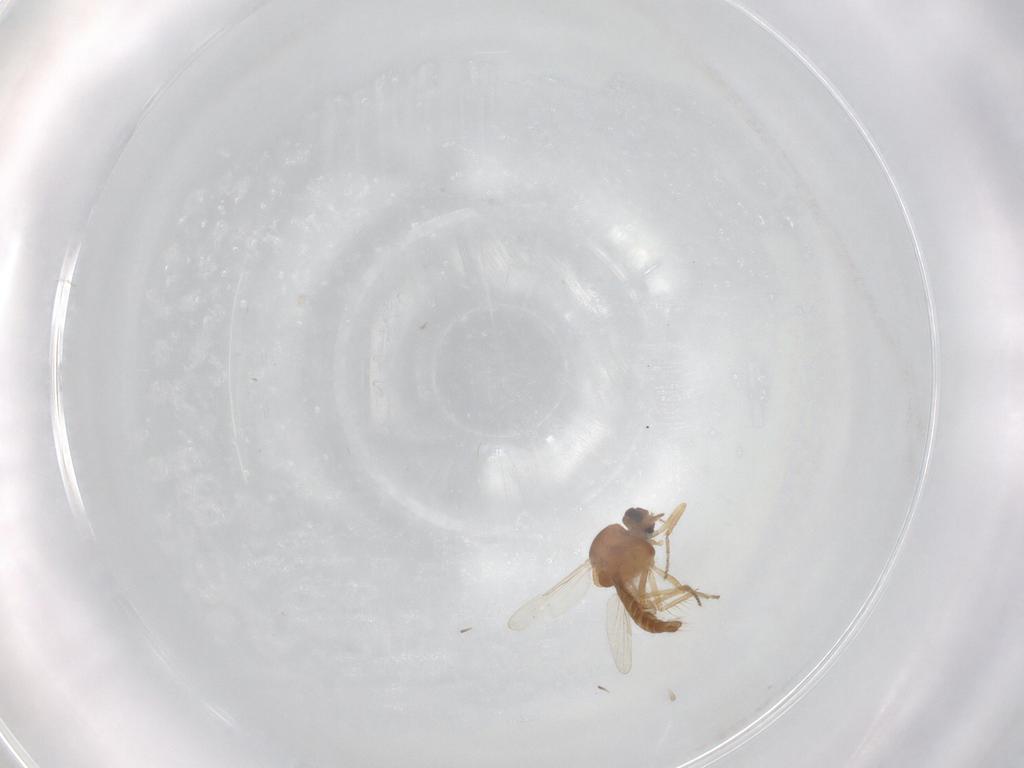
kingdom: Animalia
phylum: Arthropoda
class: Insecta
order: Diptera
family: Ceratopogonidae
